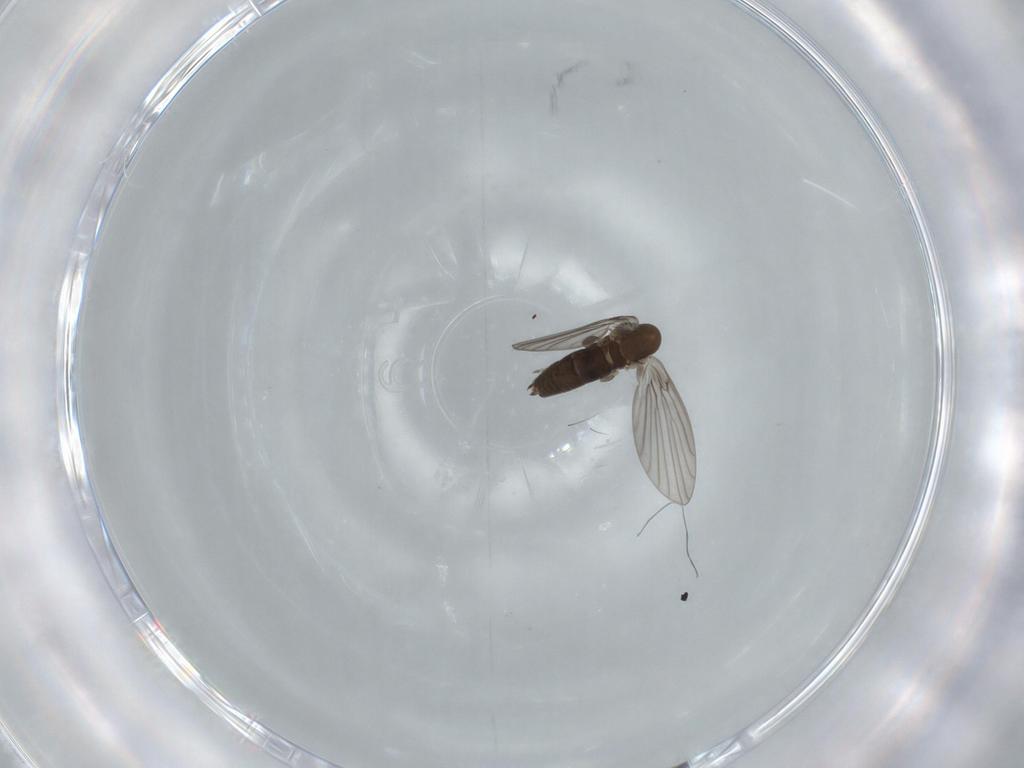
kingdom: Animalia
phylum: Arthropoda
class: Insecta
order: Diptera
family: Sciaridae
